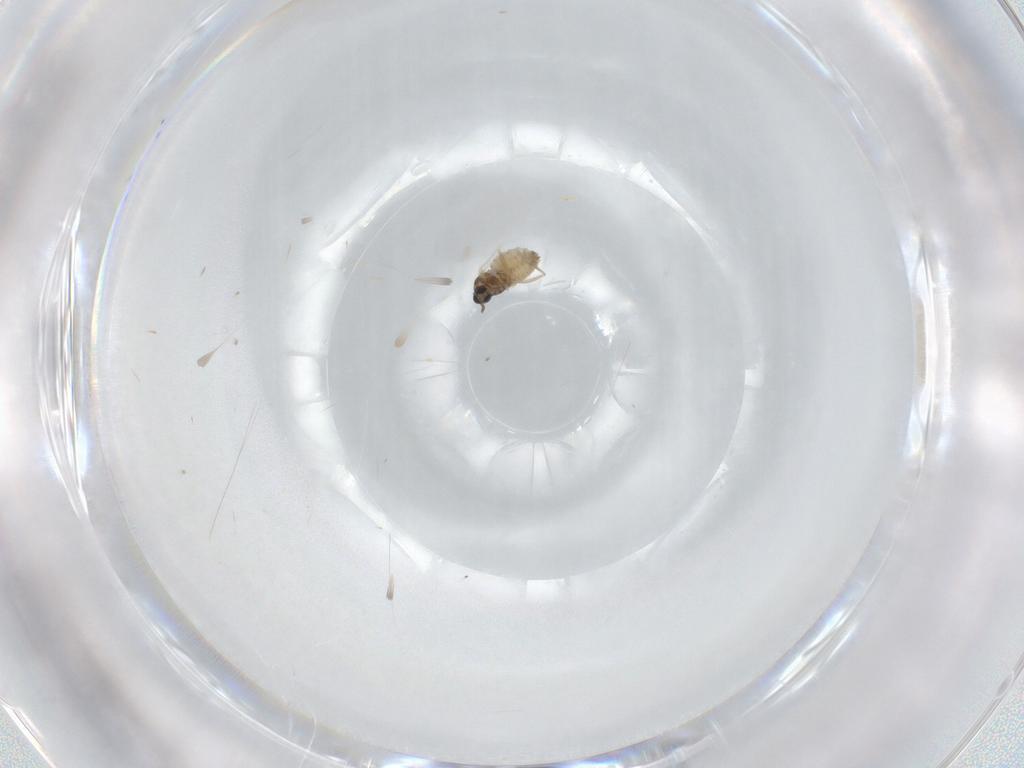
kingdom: Animalia
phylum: Arthropoda
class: Insecta
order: Diptera
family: Cecidomyiidae
